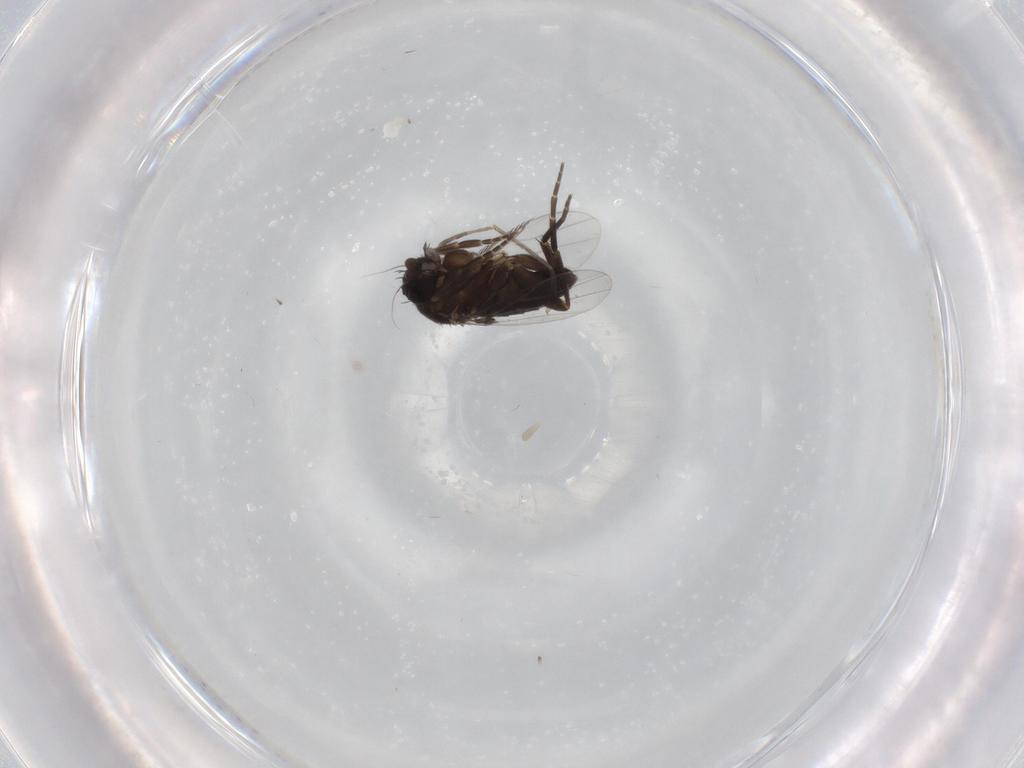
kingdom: Animalia
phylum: Arthropoda
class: Insecta
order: Diptera
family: Phoridae
